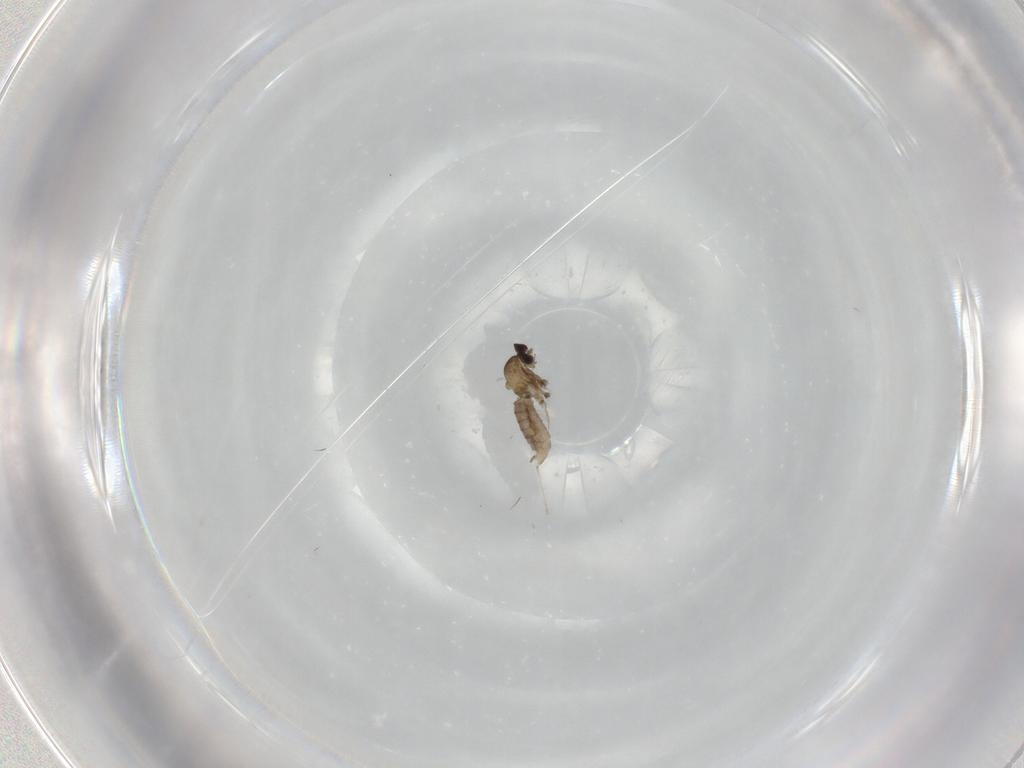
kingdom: Animalia
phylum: Arthropoda
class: Insecta
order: Diptera
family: Cecidomyiidae
